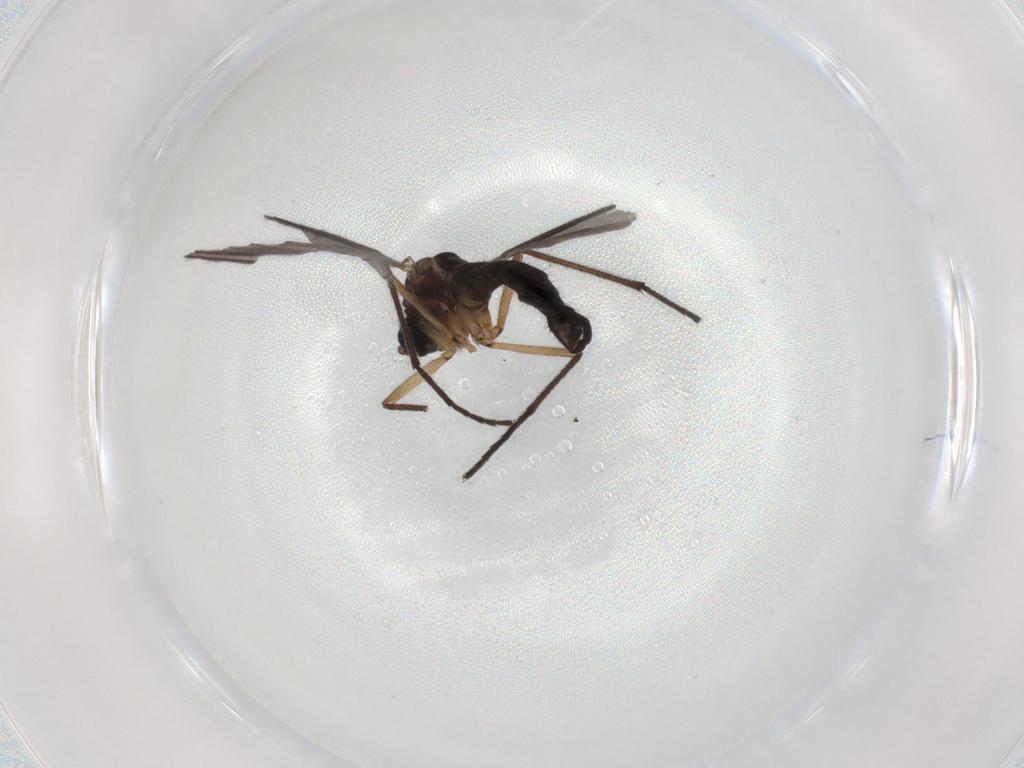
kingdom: Animalia
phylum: Arthropoda
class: Insecta
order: Diptera
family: Sciaridae
